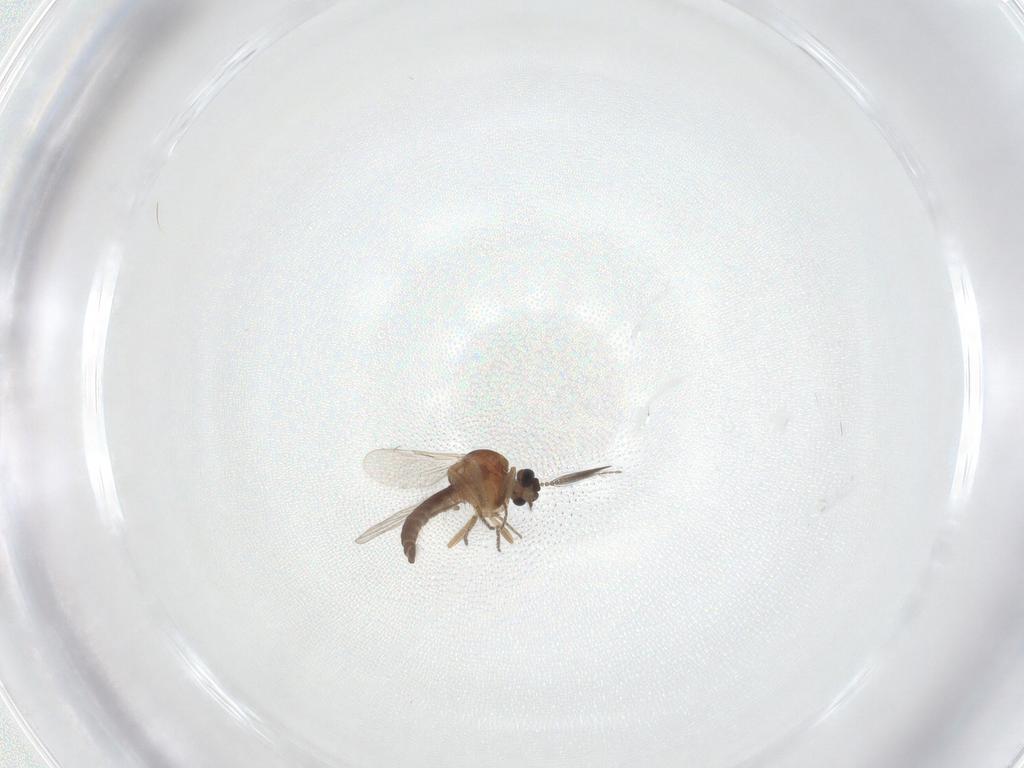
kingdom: Animalia
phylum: Arthropoda
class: Insecta
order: Diptera
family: Ceratopogonidae
